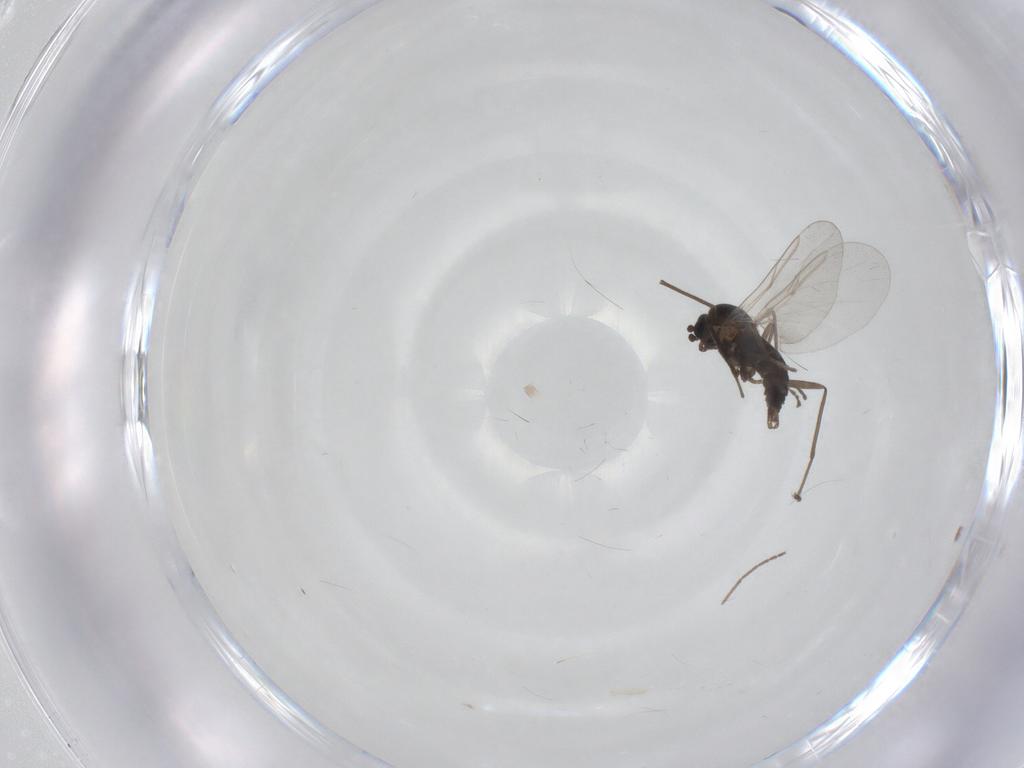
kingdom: Animalia
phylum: Arthropoda
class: Insecta
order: Diptera
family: Cecidomyiidae
